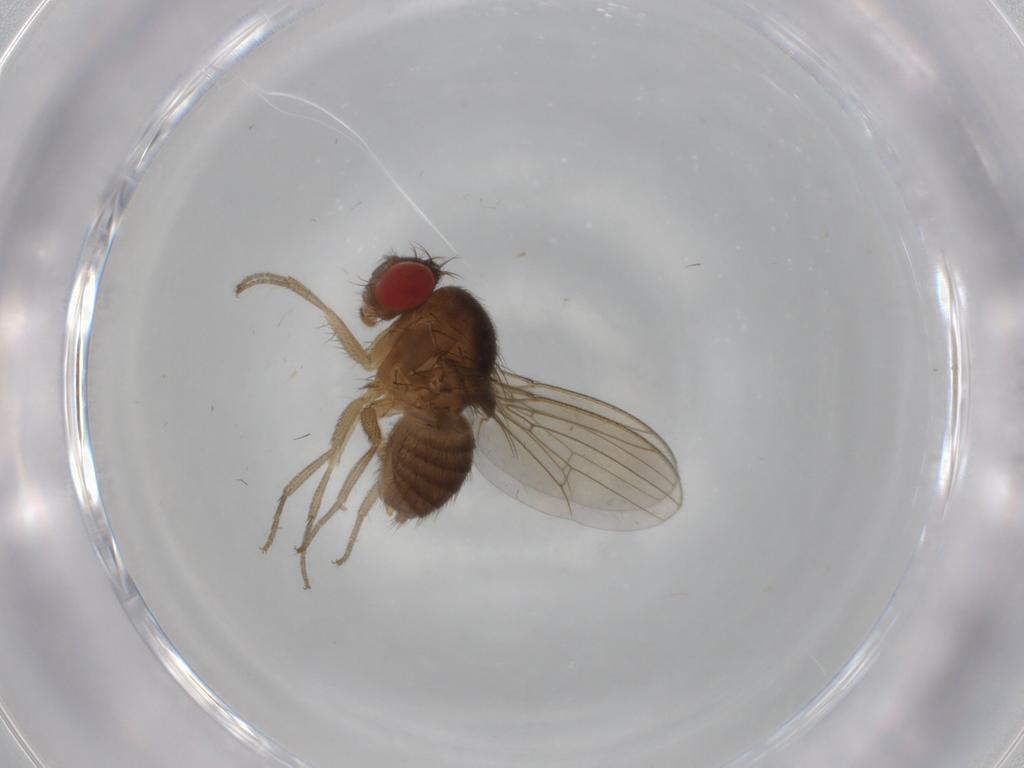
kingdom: Animalia
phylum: Arthropoda
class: Insecta
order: Diptera
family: Drosophilidae
